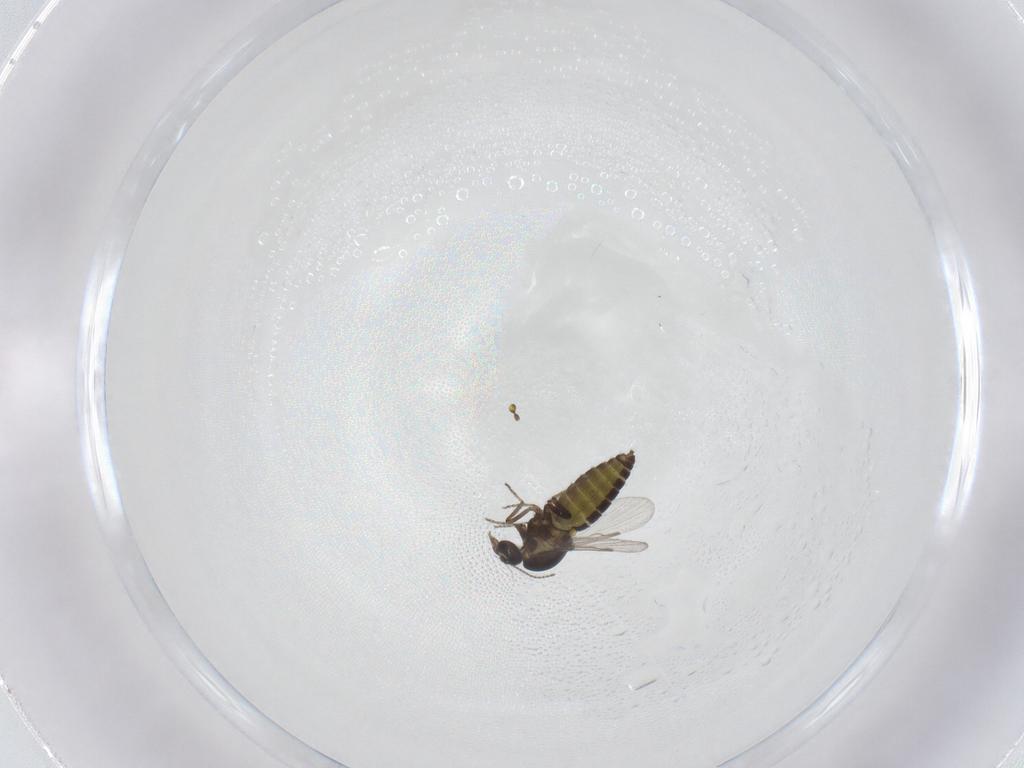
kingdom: Animalia
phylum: Arthropoda
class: Insecta
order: Diptera
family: Ceratopogonidae
